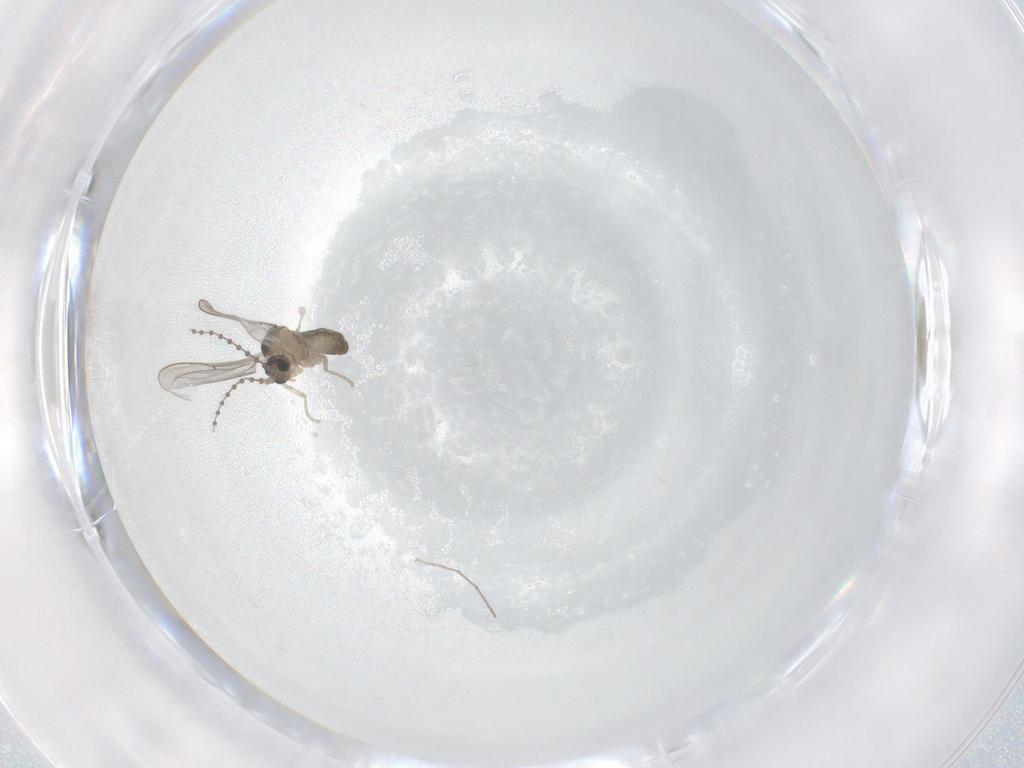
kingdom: Animalia
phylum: Arthropoda
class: Insecta
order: Diptera
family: Chironomidae
